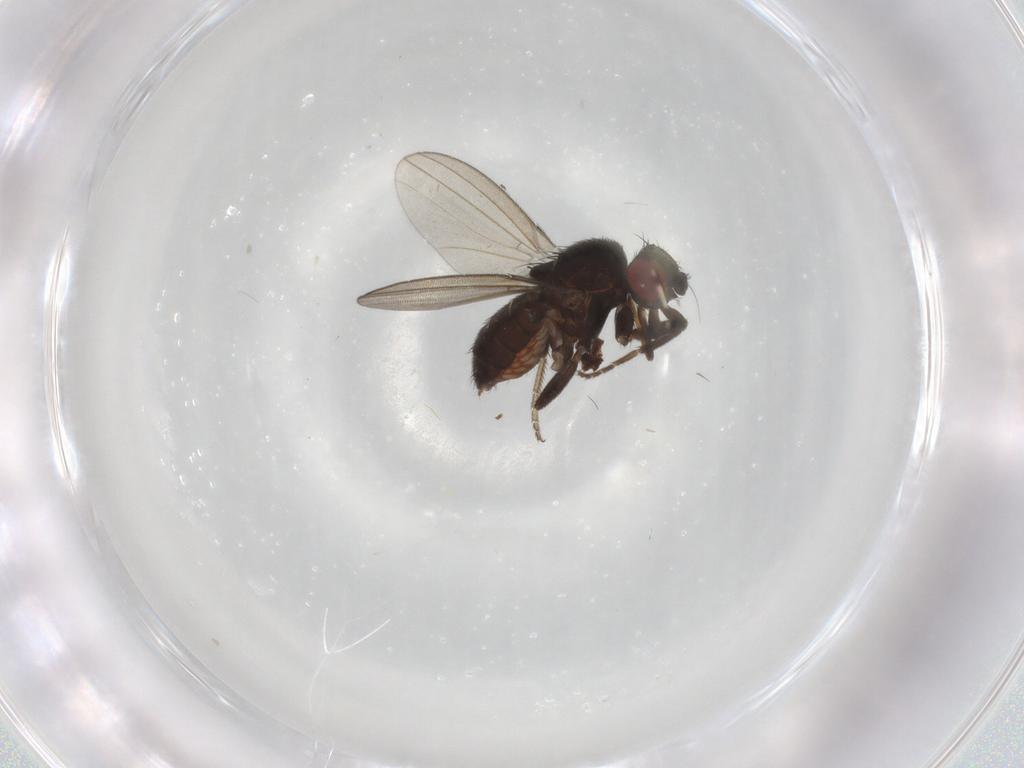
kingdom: Animalia
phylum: Arthropoda
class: Insecta
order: Diptera
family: Milichiidae
